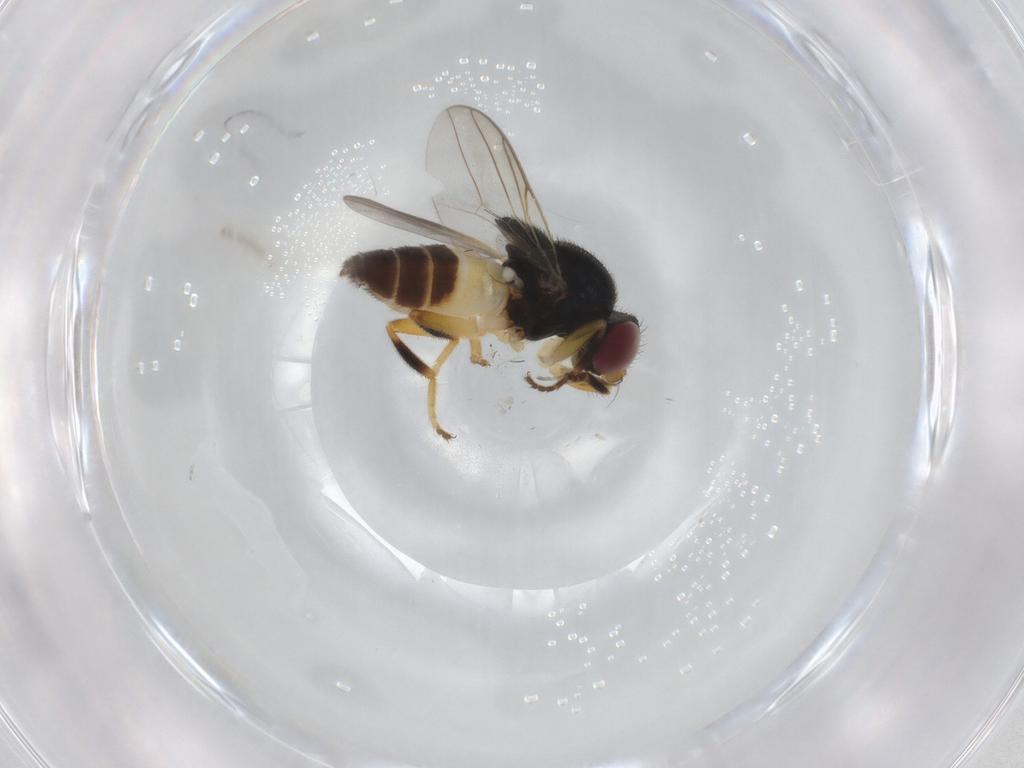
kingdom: Animalia
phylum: Arthropoda
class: Insecta
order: Diptera
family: Chloropidae
